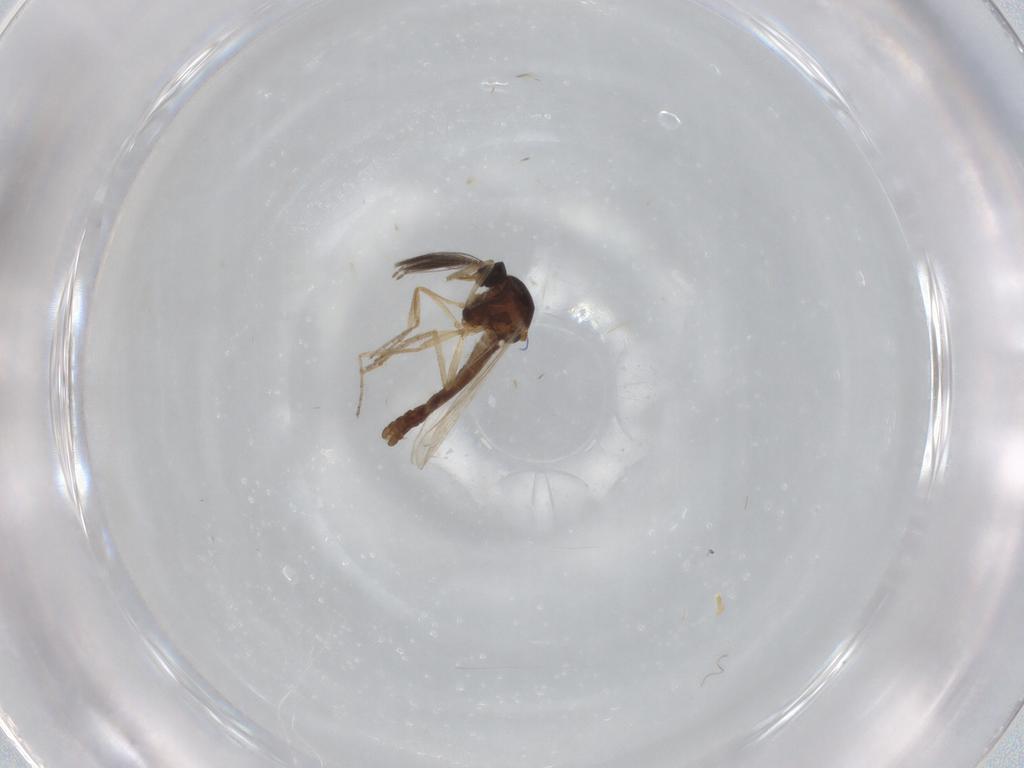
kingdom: Animalia
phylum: Arthropoda
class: Insecta
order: Diptera
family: Ceratopogonidae
